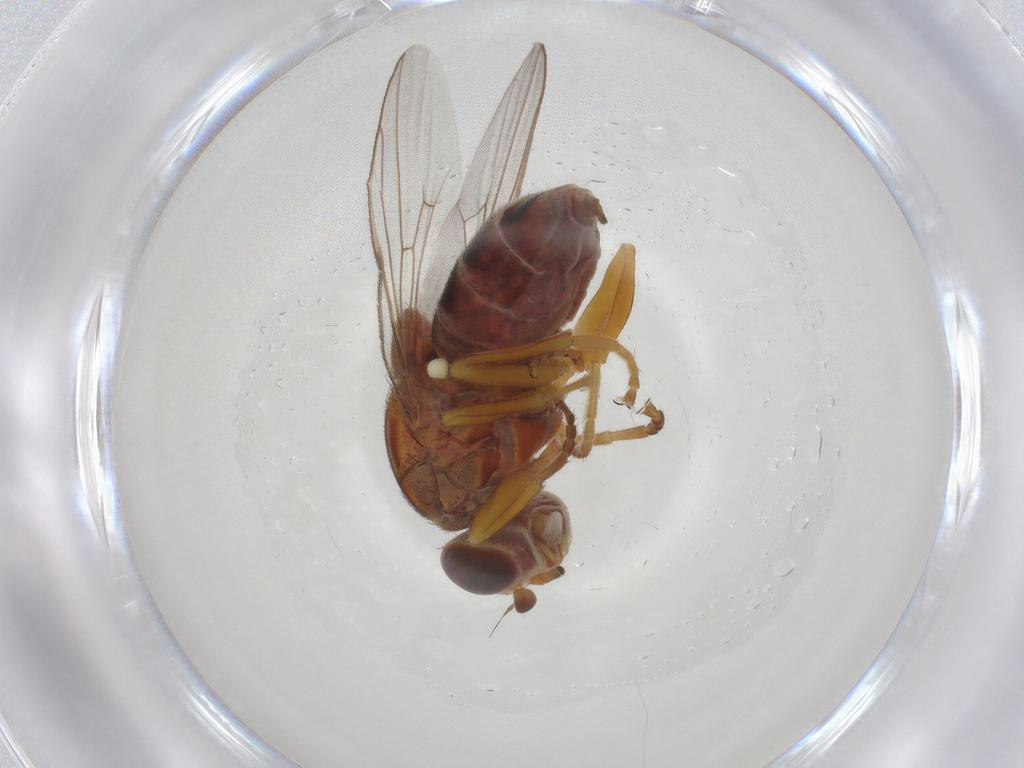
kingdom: Animalia
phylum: Arthropoda
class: Insecta
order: Diptera
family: Chloropidae
